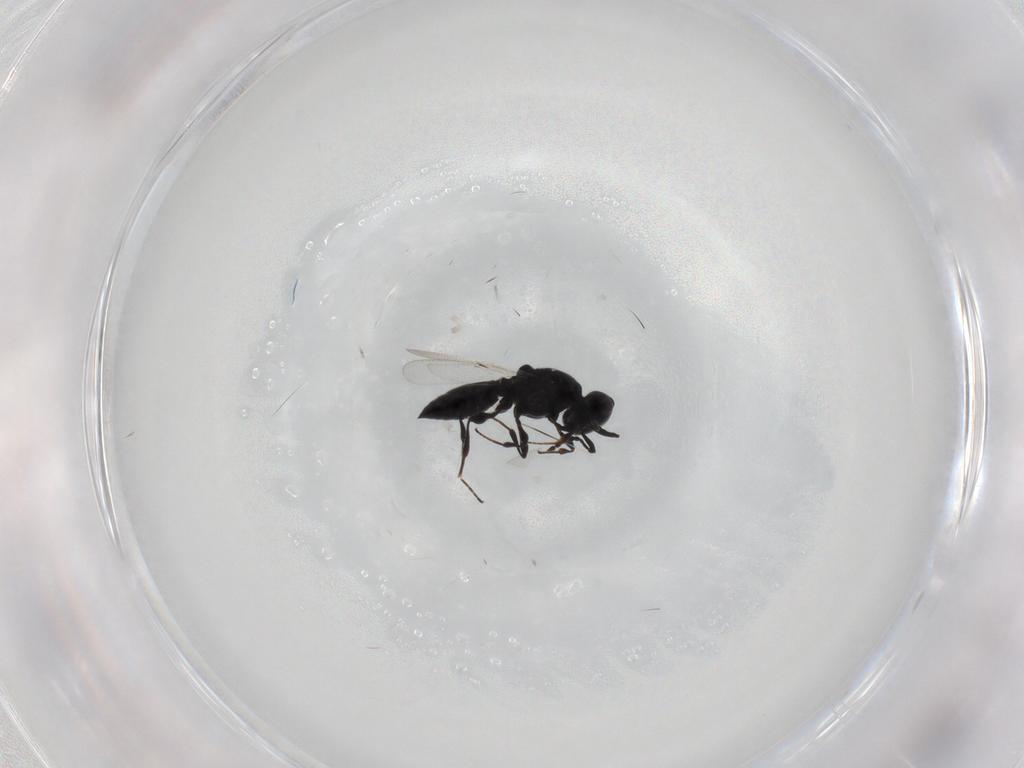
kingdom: Animalia
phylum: Arthropoda
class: Insecta
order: Hymenoptera
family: Platygastridae
